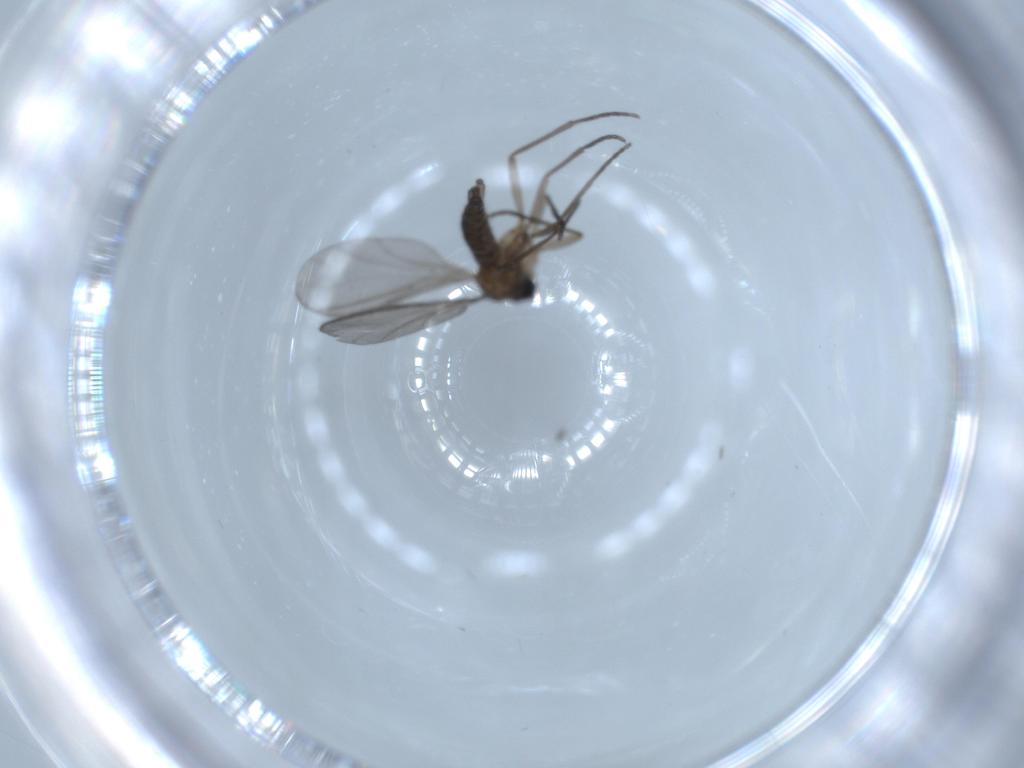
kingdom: Animalia
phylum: Arthropoda
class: Insecta
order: Diptera
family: Sciaridae
